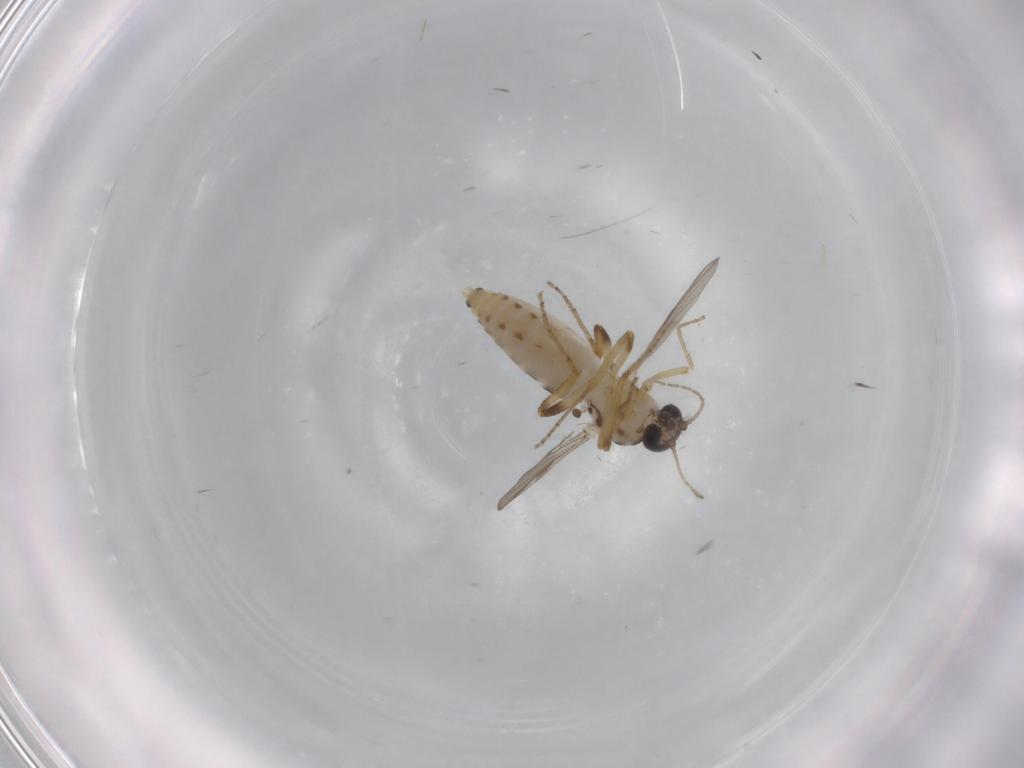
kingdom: Animalia
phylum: Arthropoda
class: Insecta
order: Diptera
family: Ceratopogonidae
